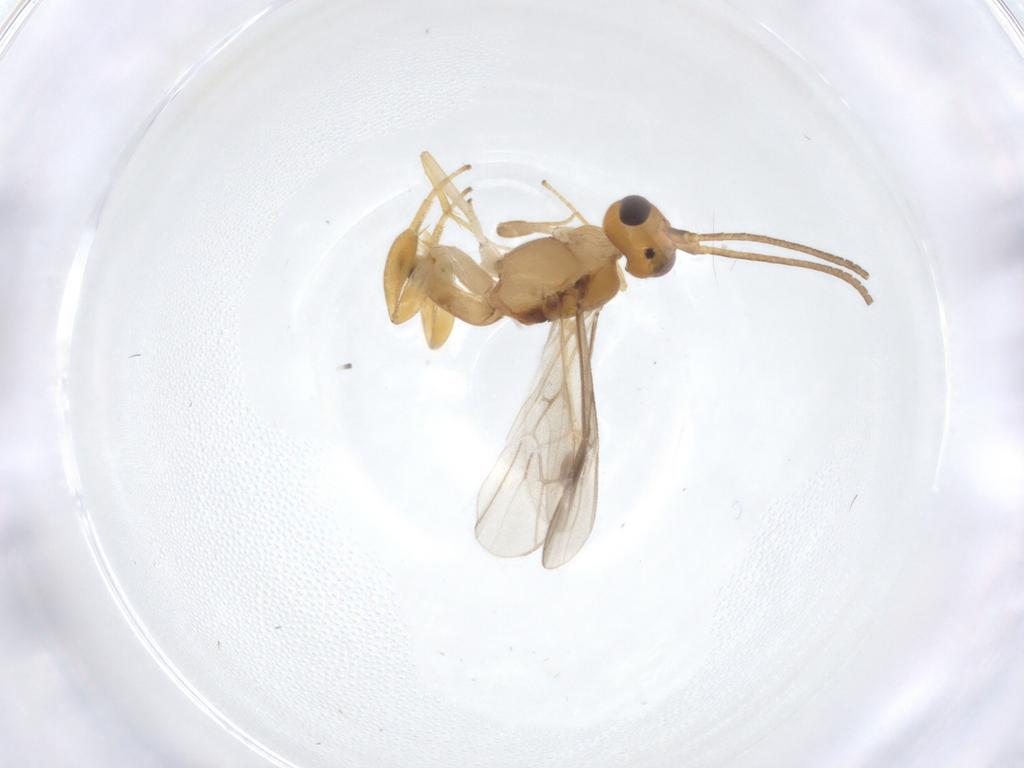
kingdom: Animalia
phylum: Arthropoda
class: Insecta
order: Hymenoptera
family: Braconidae
